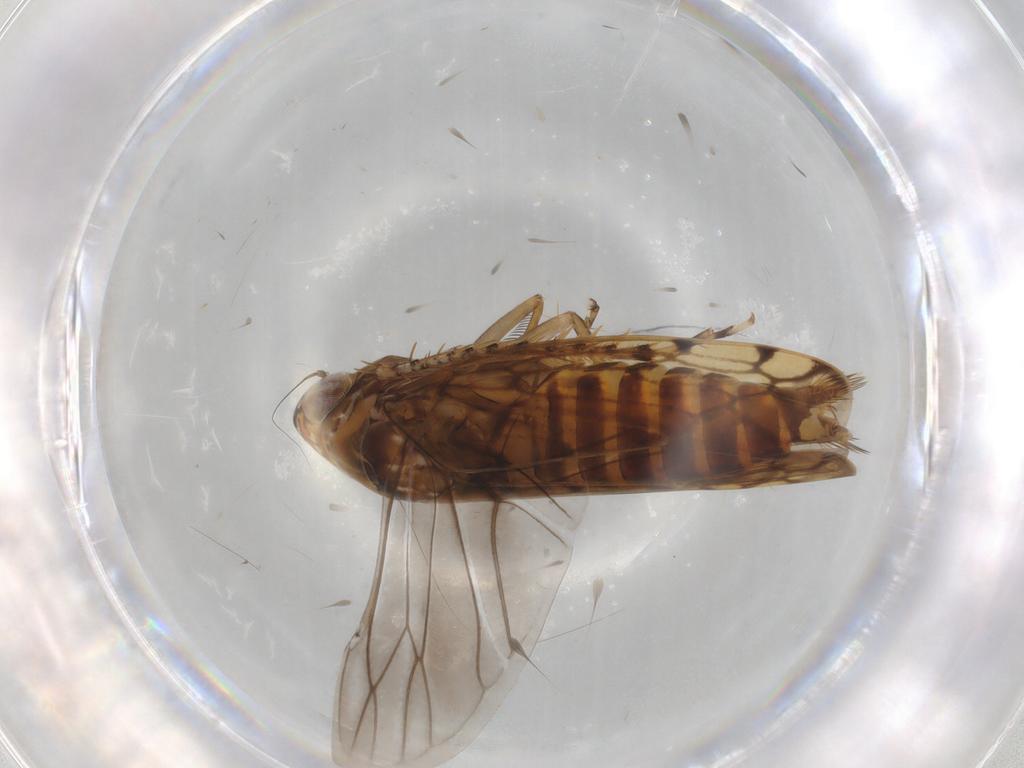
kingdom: Animalia
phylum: Arthropoda
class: Insecta
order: Hemiptera
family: Cicadellidae
